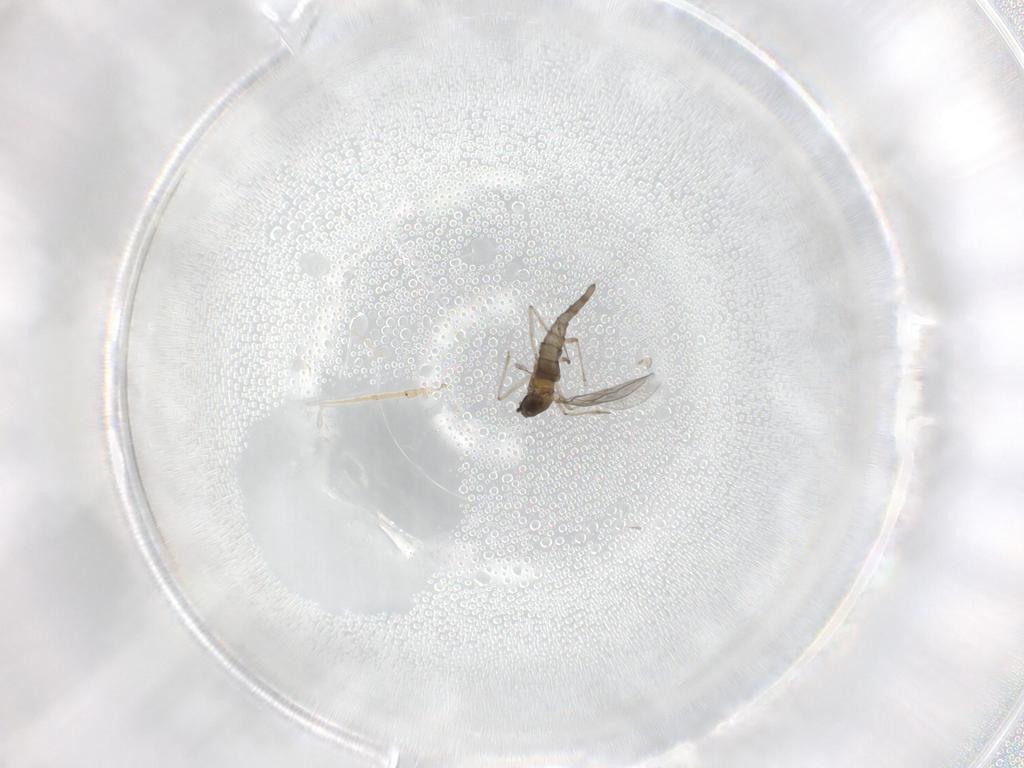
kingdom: Animalia
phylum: Arthropoda
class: Insecta
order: Diptera
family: Cecidomyiidae
